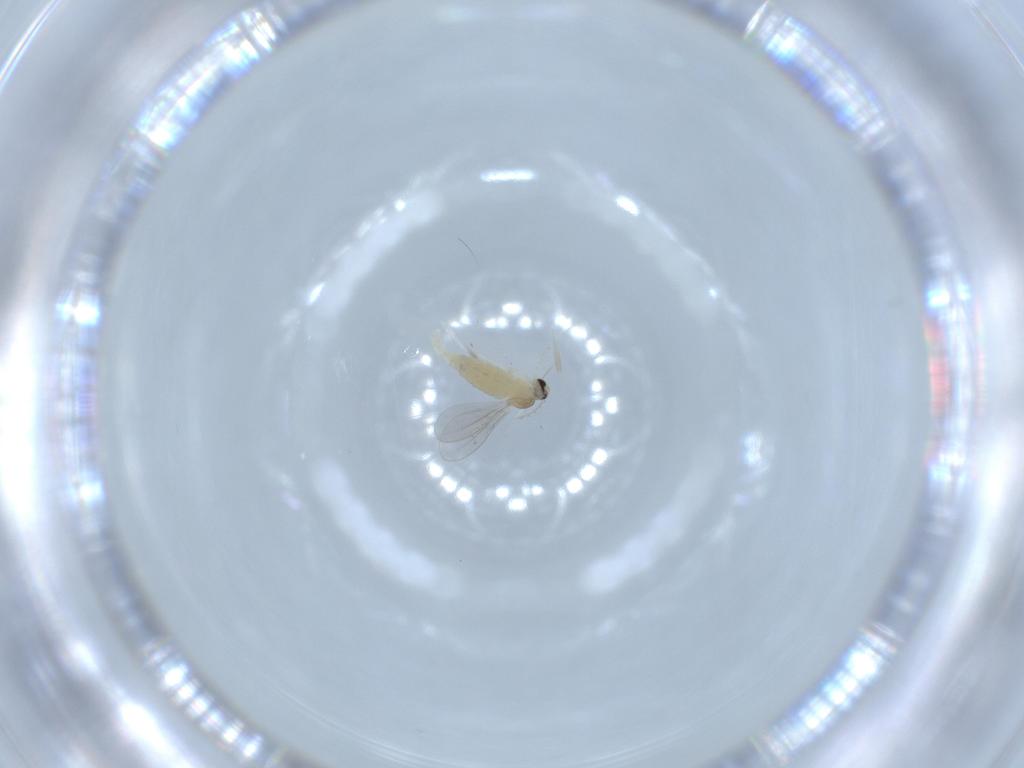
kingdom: Animalia
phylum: Arthropoda
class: Insecta
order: Diptera
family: Cecidomyiidae
